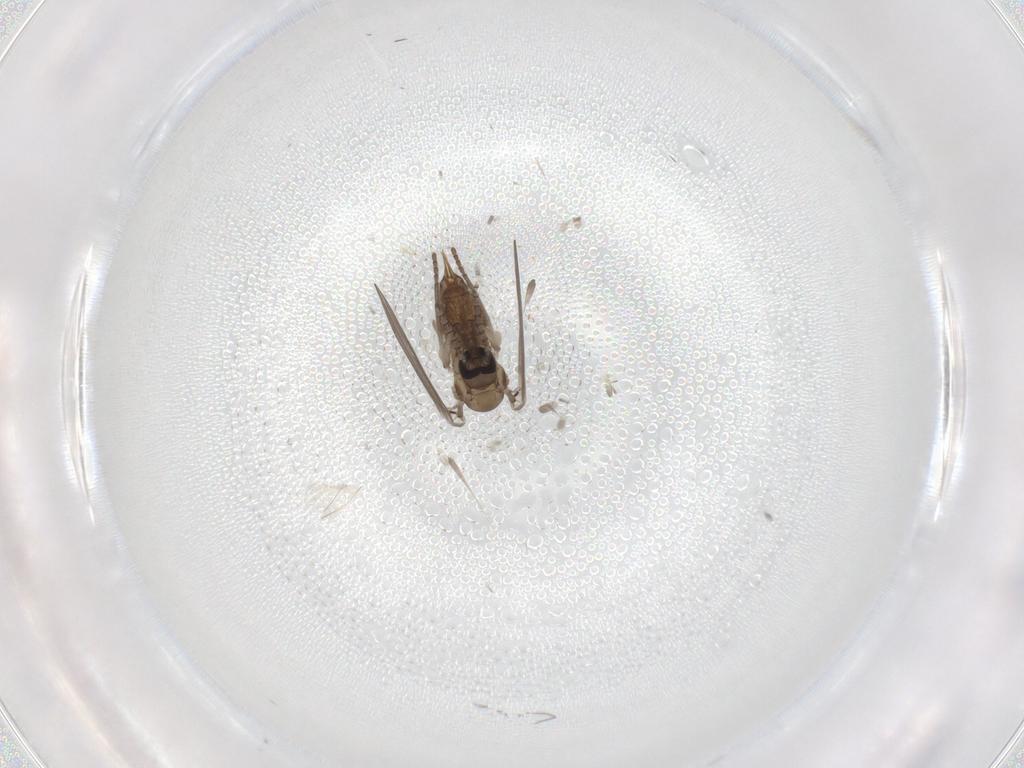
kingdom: Animalia
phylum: Arthropoda
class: Insecta
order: Diptera
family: Psychodidae
